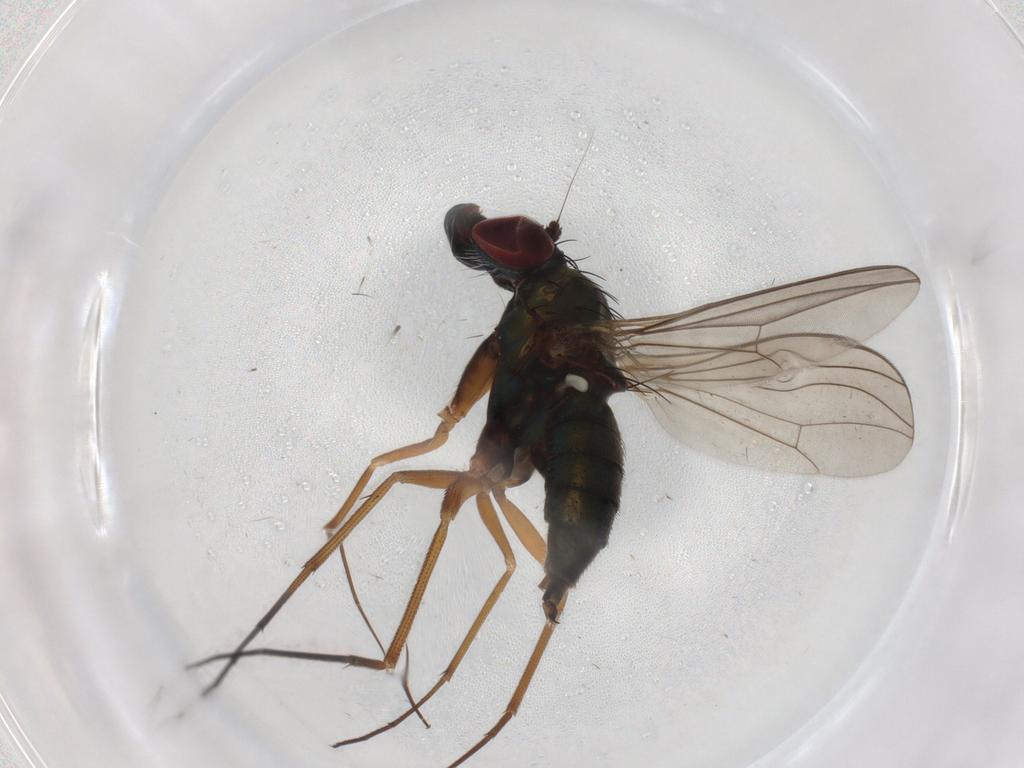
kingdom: Animalia
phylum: Arthropoda
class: Insecta
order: Diptera
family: Dolichopodidae
